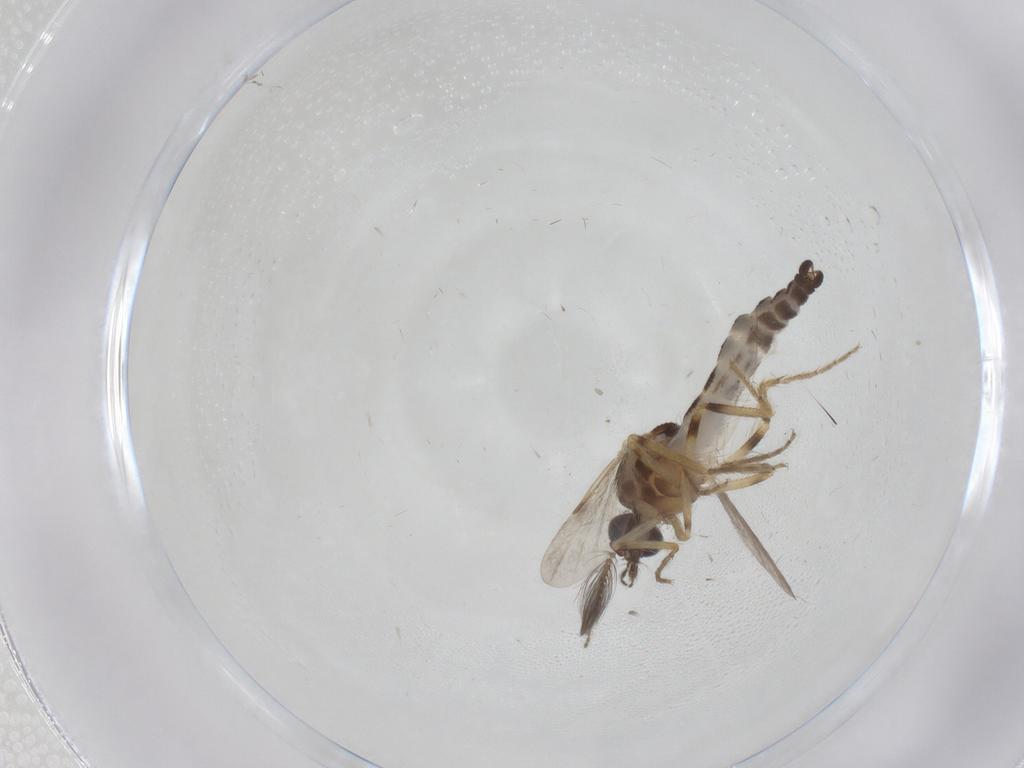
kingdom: Animalia
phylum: Arthropoda
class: Insecta
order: Diptera
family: Ceratopogonidae
